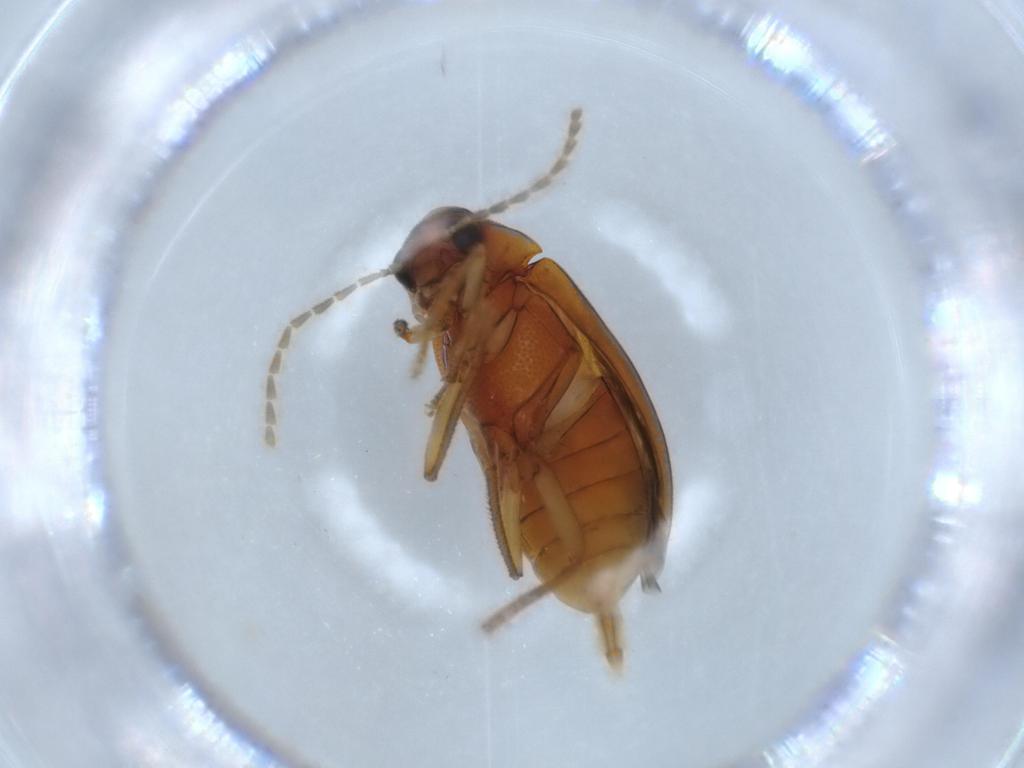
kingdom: Animalia
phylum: Arthropoda
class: Insecta
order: Coleoptera
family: Ptilodactylidae
